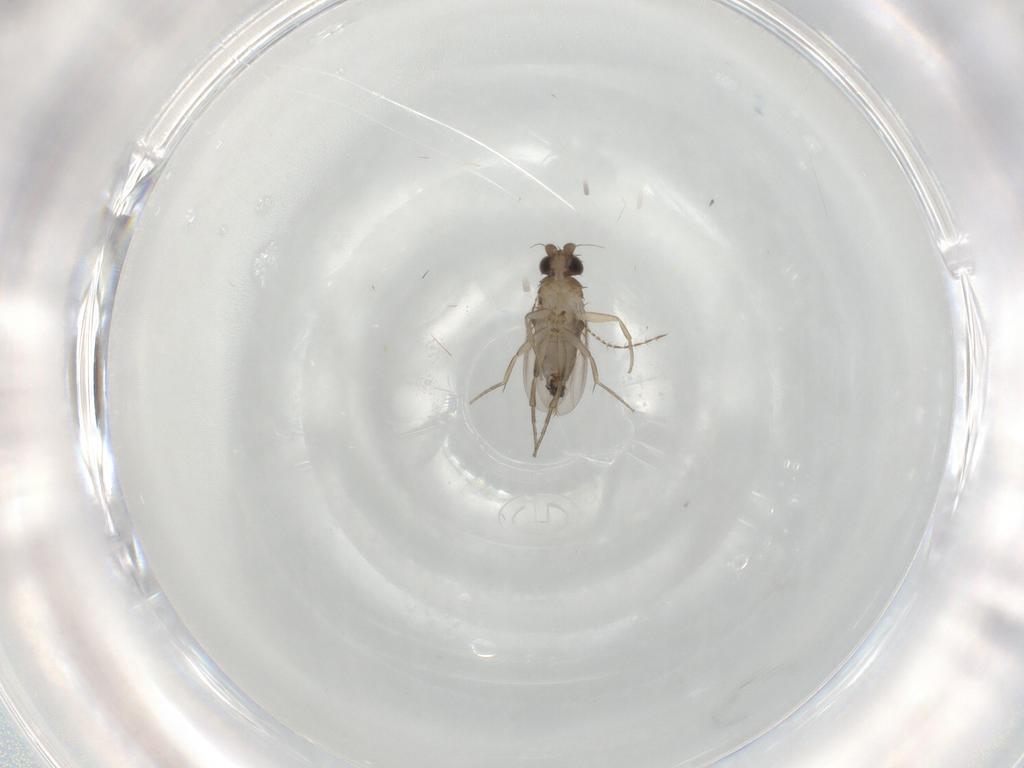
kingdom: Animalia
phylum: Arthropoda
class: Insecta
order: Diptera
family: Phoridae
